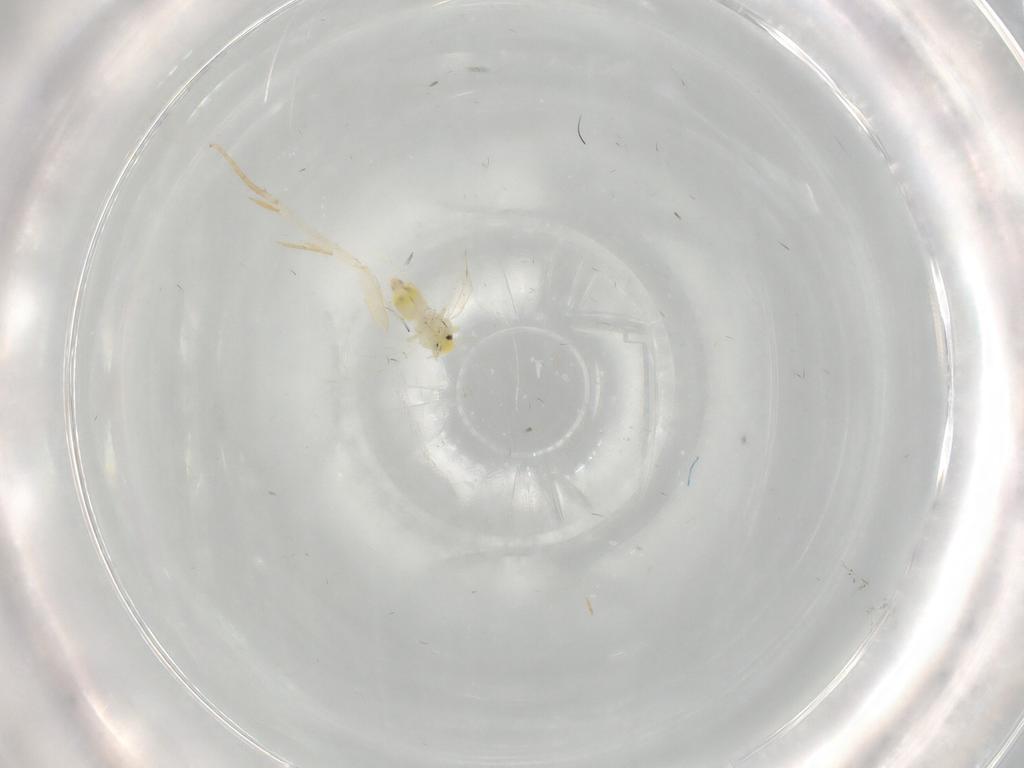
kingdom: Animalia
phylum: Arthropoda
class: Insecta
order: Hemiptera
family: Aleyrodidae
